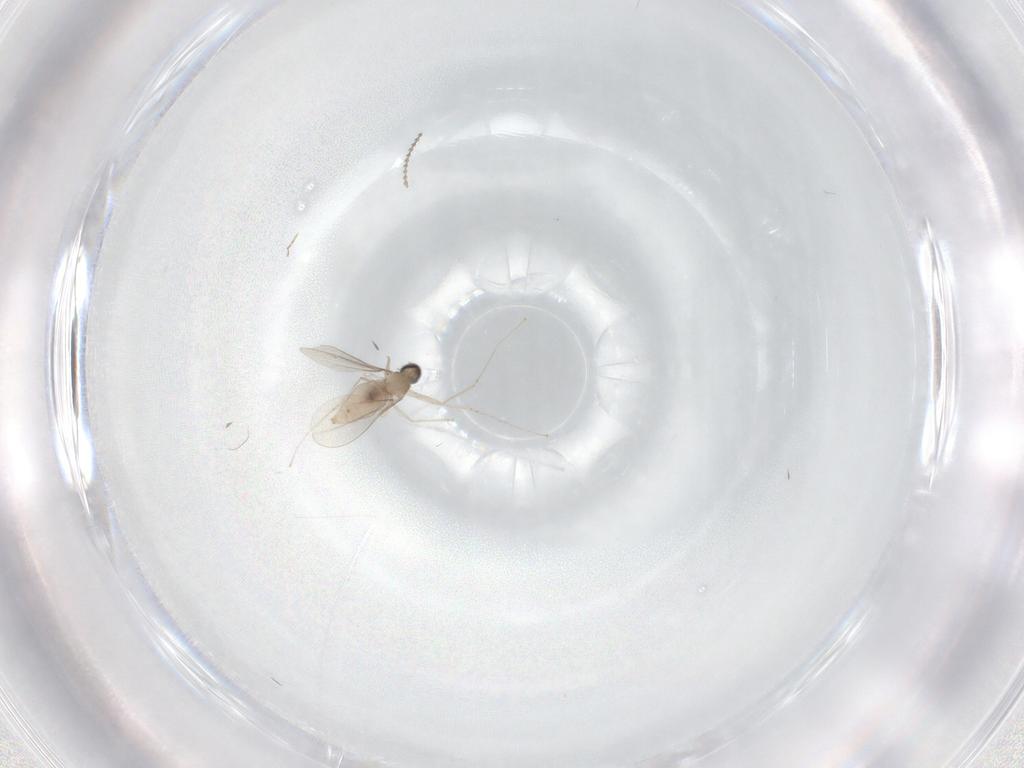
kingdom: Animalia
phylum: Arthropoda
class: Insecta
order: Diptera
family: Cecidomyiidae
